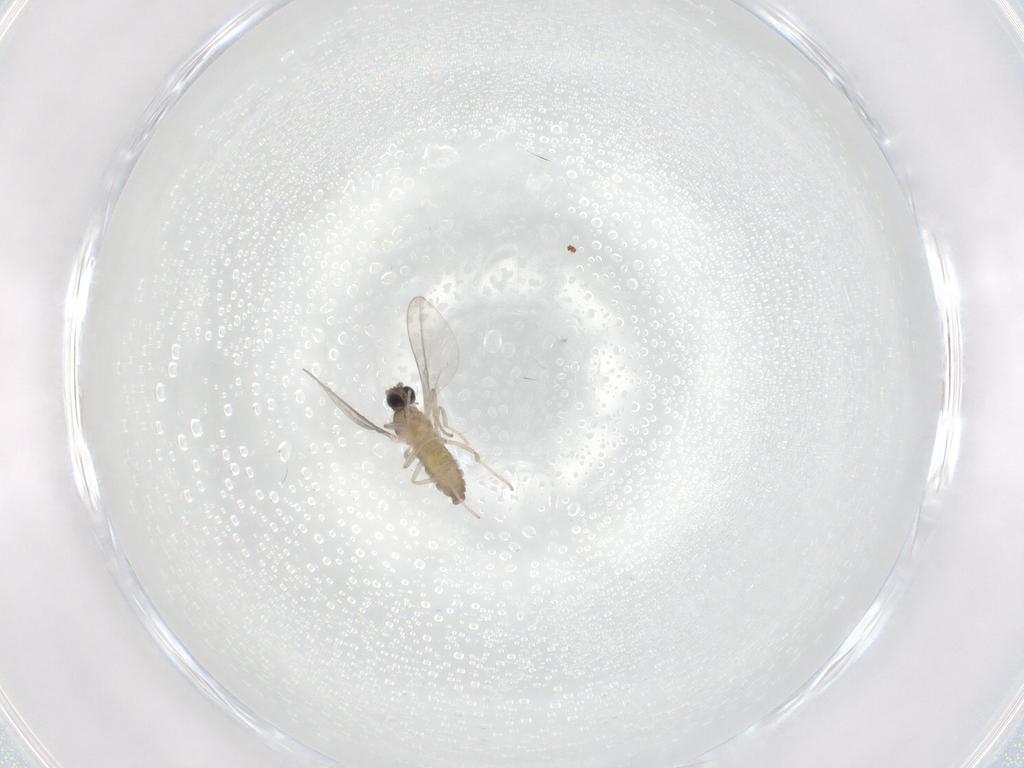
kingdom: Animalia
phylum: Arthropoda
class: Insecta
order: Diptera
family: Cecidomyiidae
